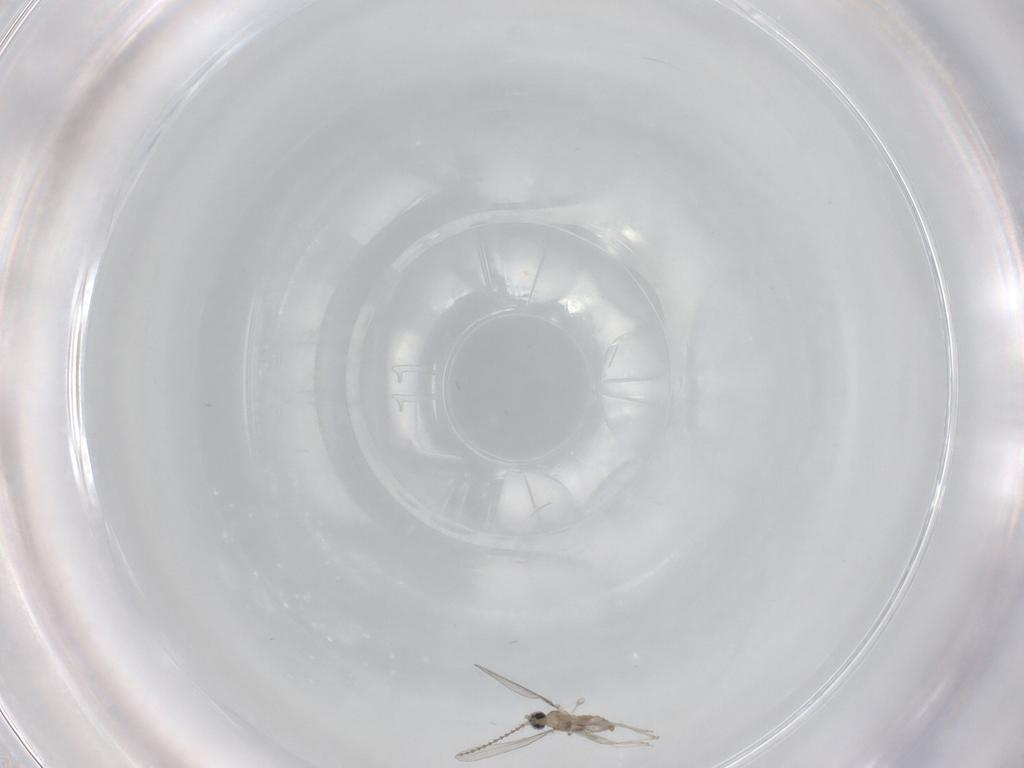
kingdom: Animalia
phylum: Arthropoda
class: Insecta
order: Diptera
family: Cecidomyiidae
